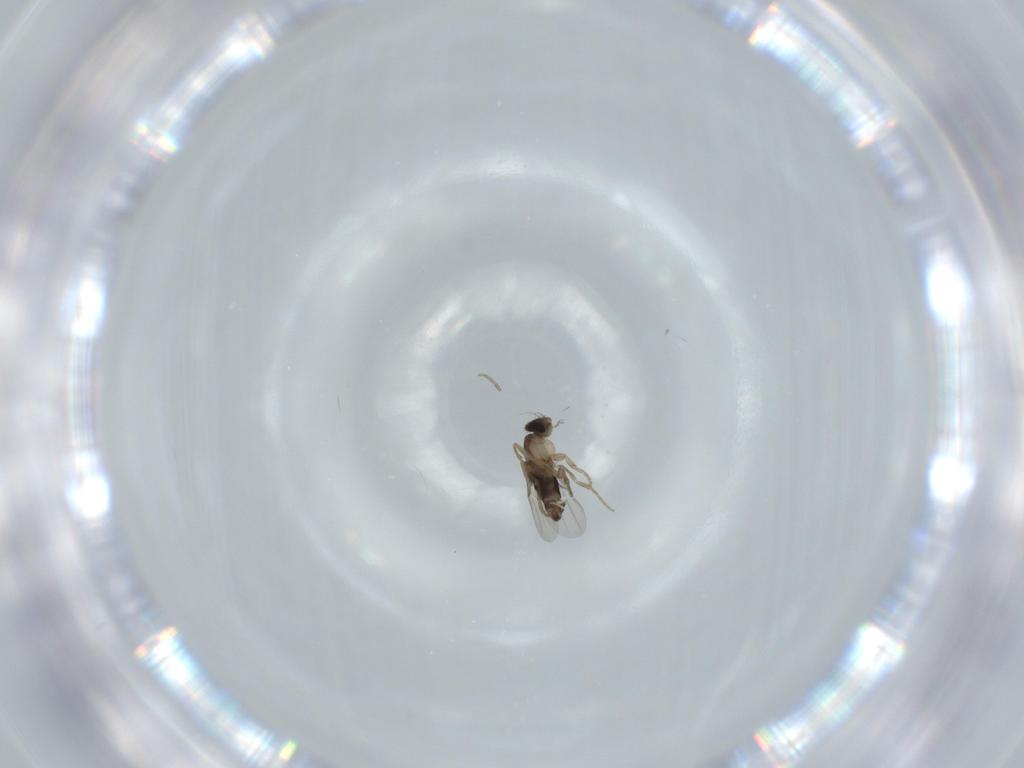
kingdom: Animalia
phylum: Arthropoda
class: Insecta
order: Diptera
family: Phoridae
